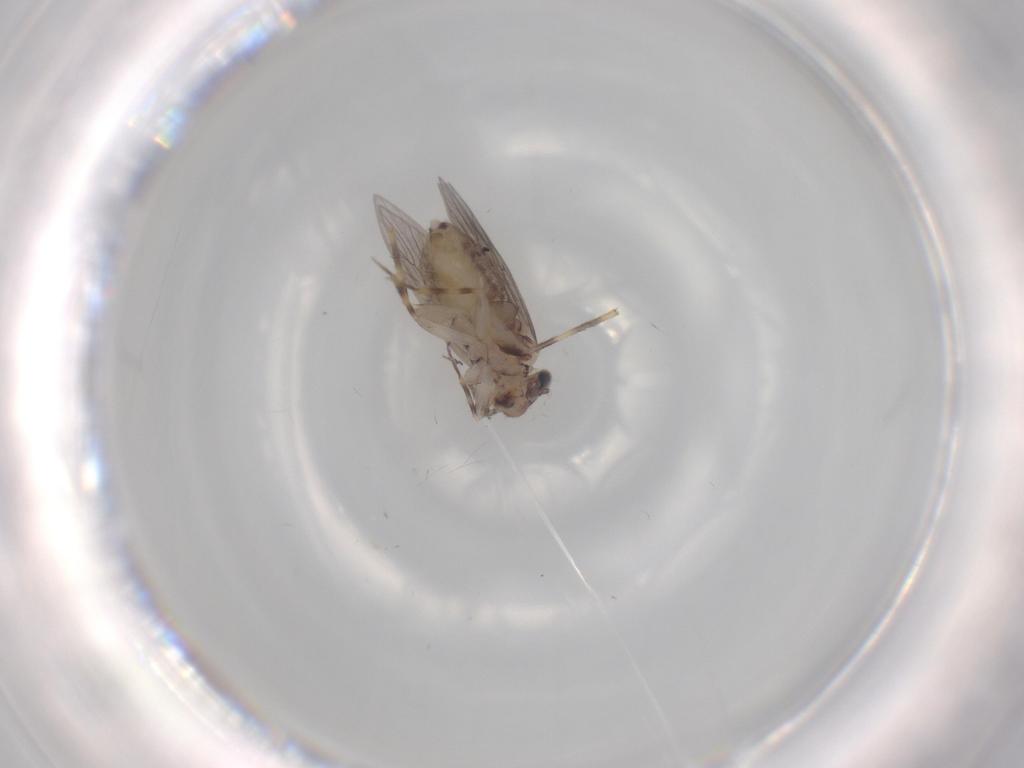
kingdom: Animalia
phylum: Arthropoda
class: Insecta
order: Psocodea
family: Lepidopsocidae
